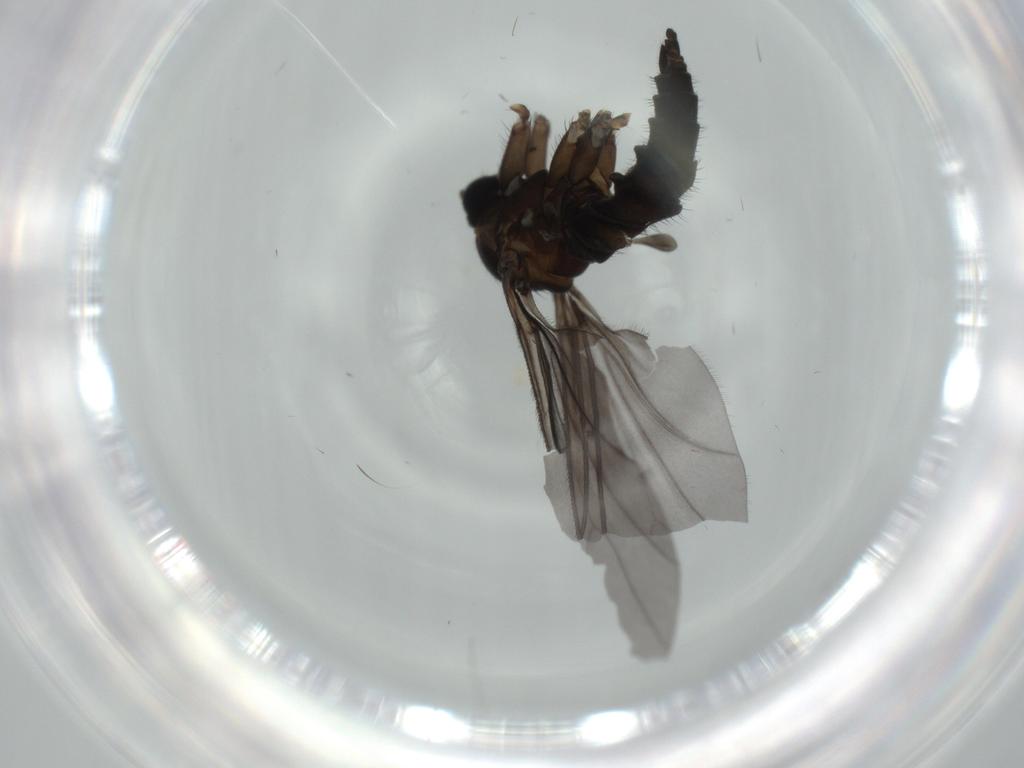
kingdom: Animalia
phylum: Arthropoda
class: Insecta
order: Diptera
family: Sciaridae
